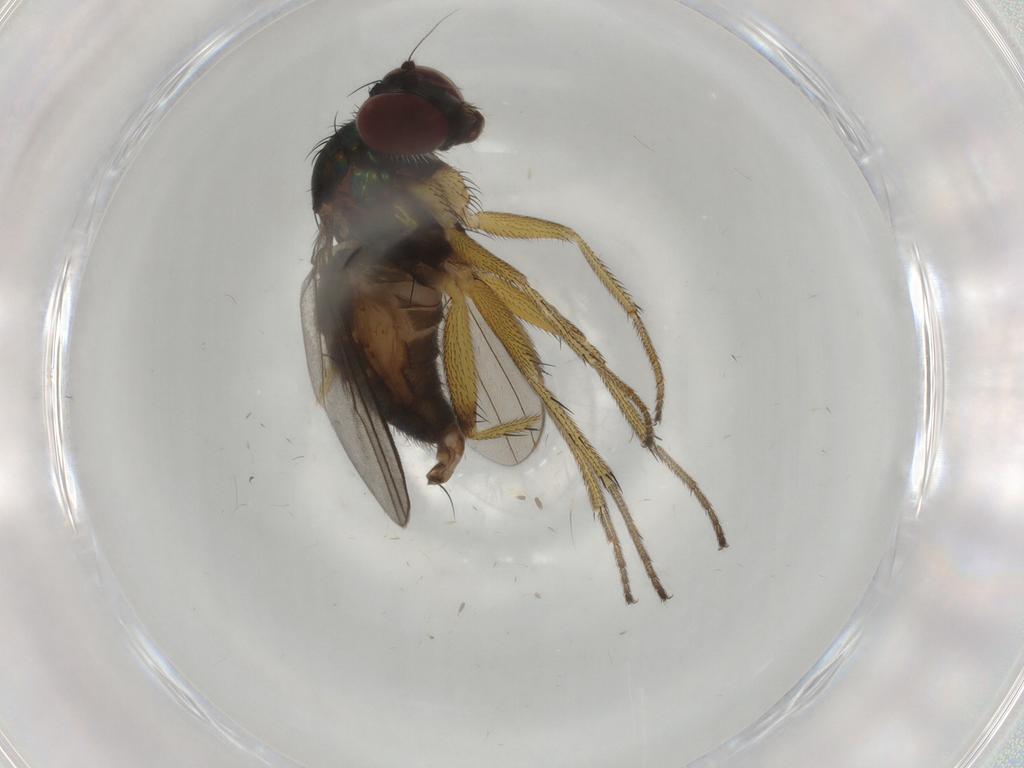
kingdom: Animalia
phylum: Arthropoda
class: Insecta
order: Diptera
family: Dolichopodidae
